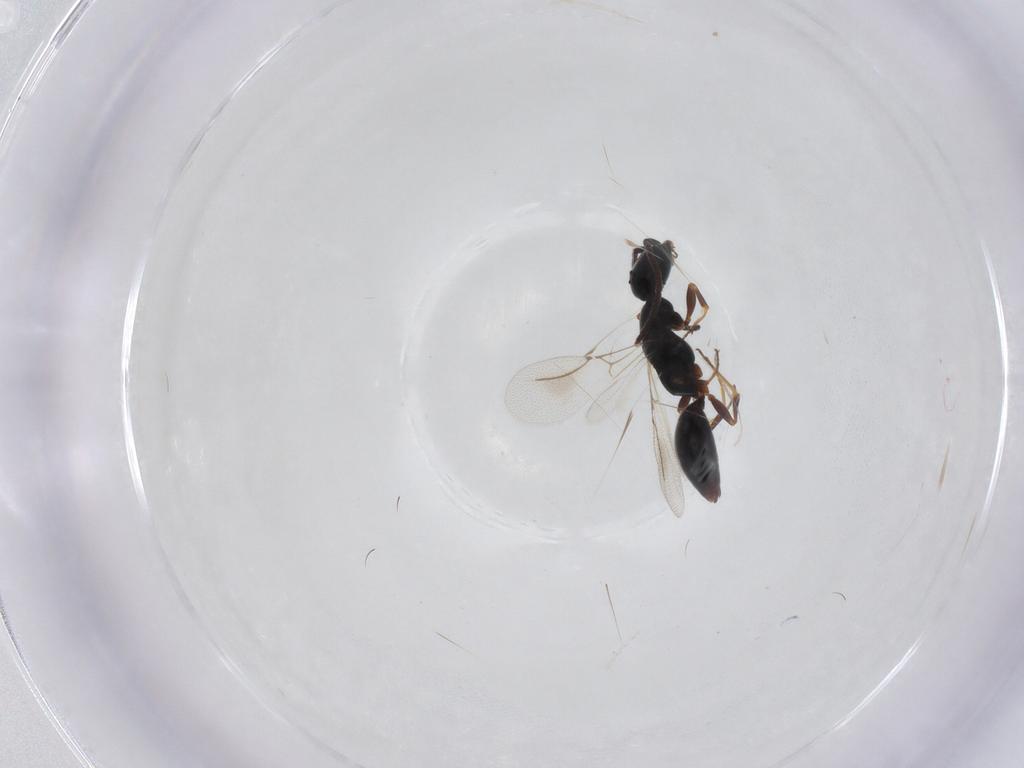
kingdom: Animalia
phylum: Arthropoda
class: Insecta
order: Hymenoptera
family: Bethylidae
